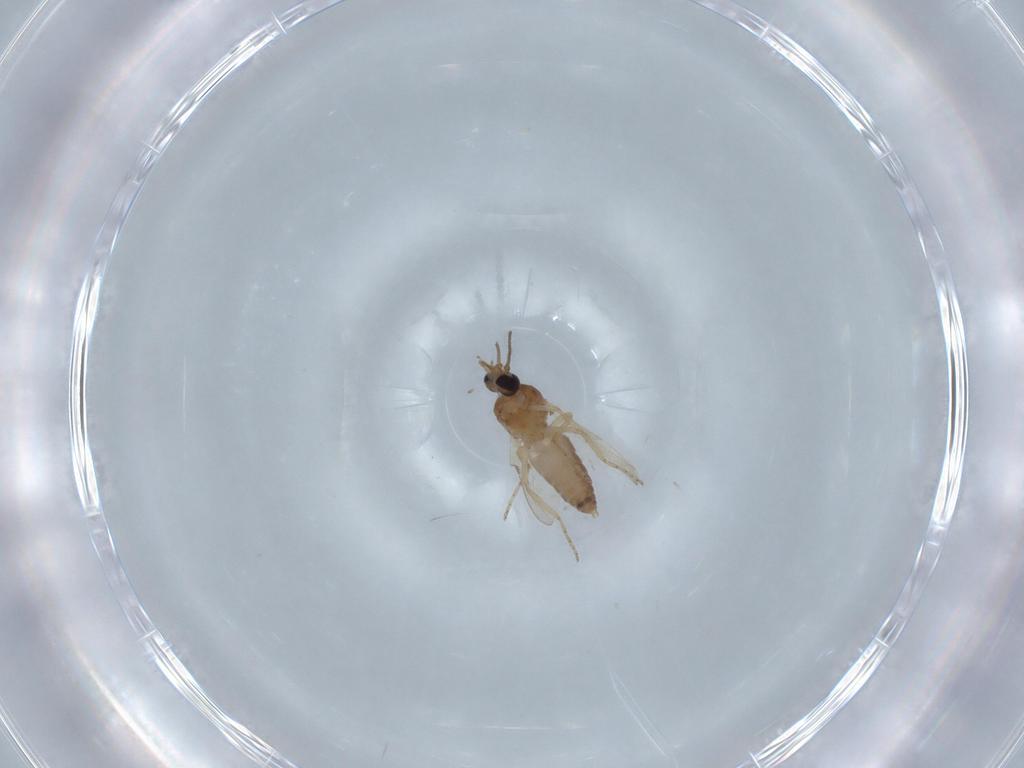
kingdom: Animalia
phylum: Arthropoda
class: Insecta
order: Diptera
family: Ceratopogonidae
